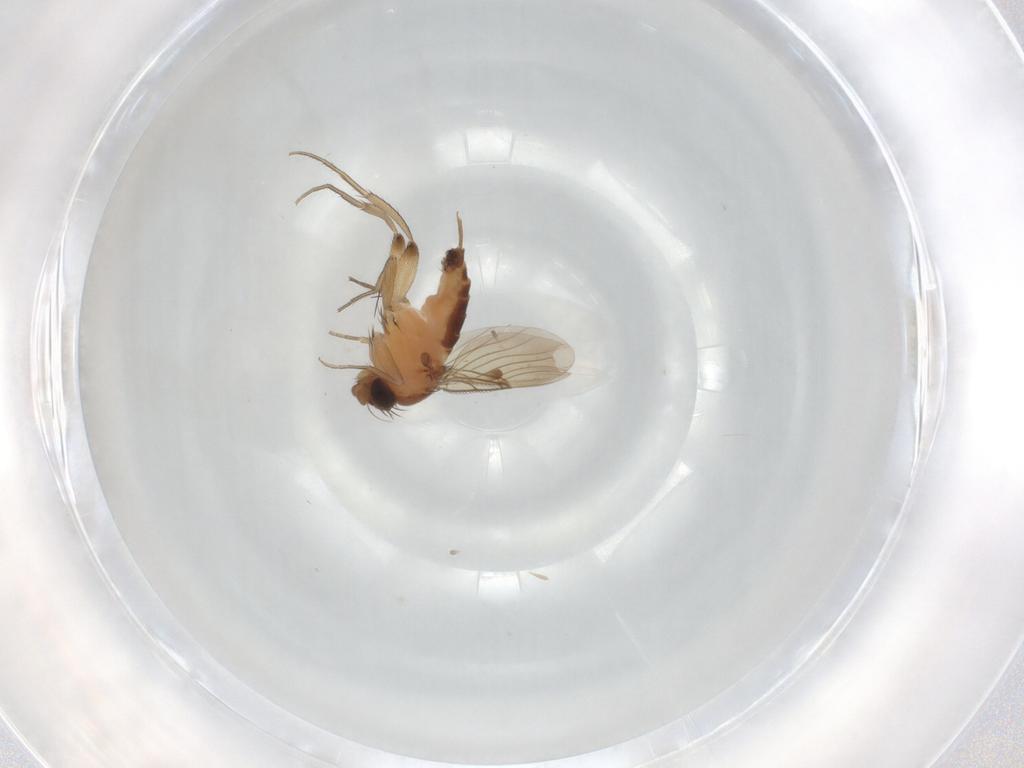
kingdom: Animalia
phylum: Arthropoda
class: Insecta
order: Diptera
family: Phoridae
